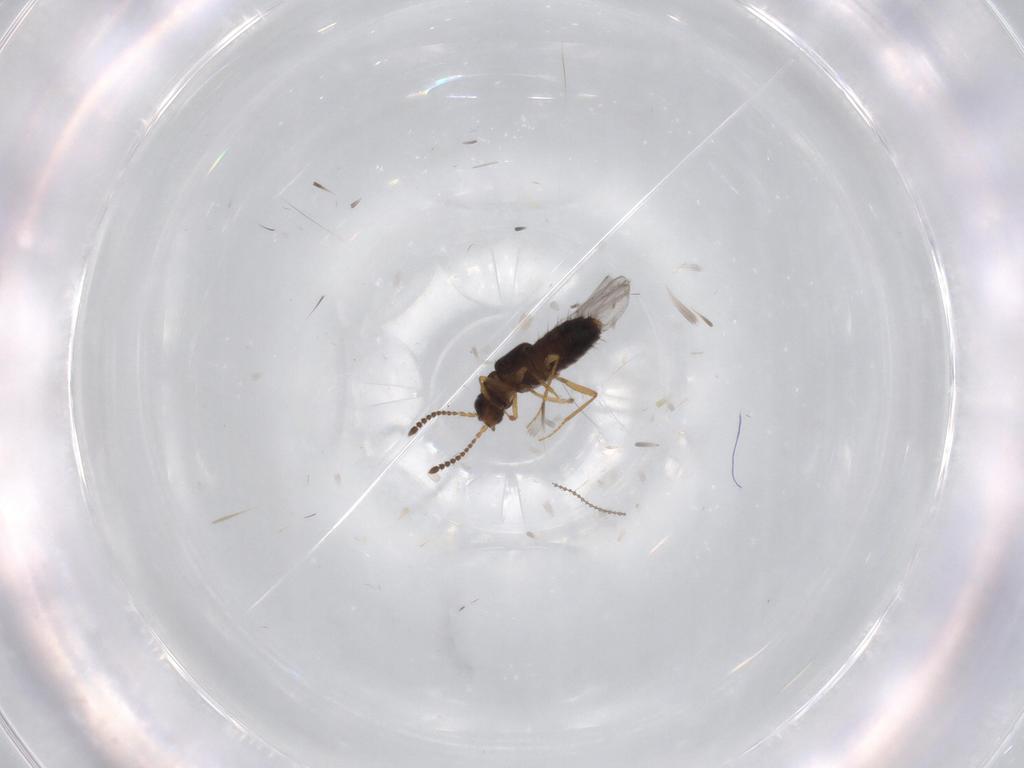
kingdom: Animalia
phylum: Arthropoda
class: Insecta
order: Coleoptera
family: Staphylinidae
